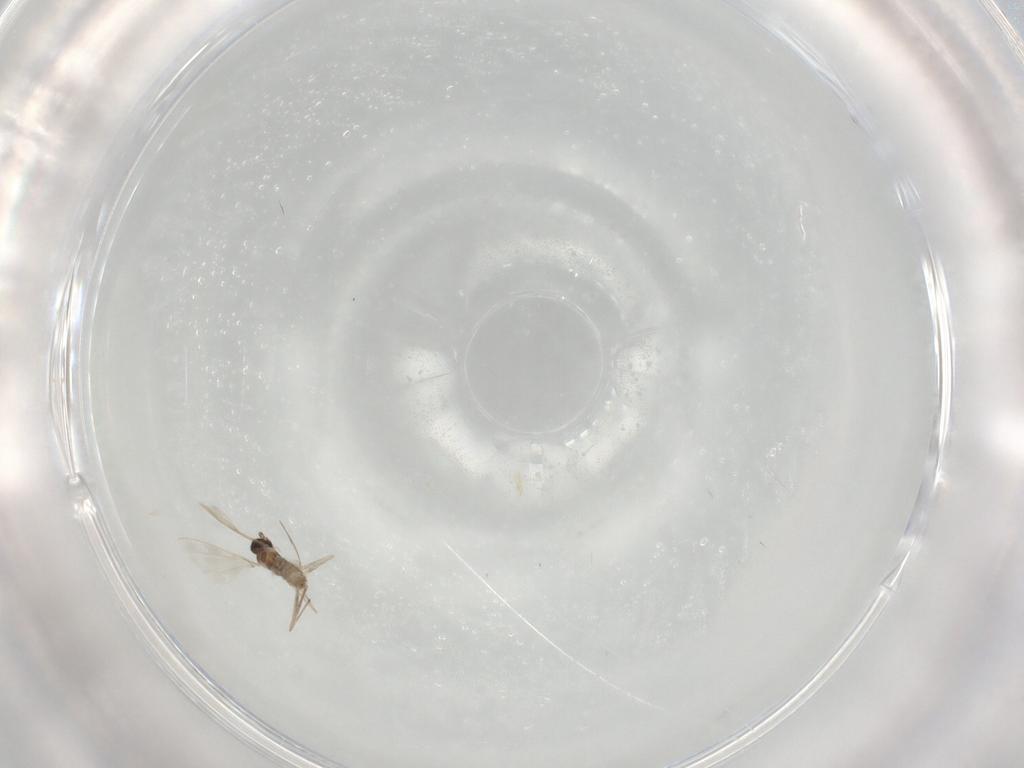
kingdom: Animalia
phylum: Arthropoda
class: Insecta
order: Diptera
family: Cecidomyiidae
